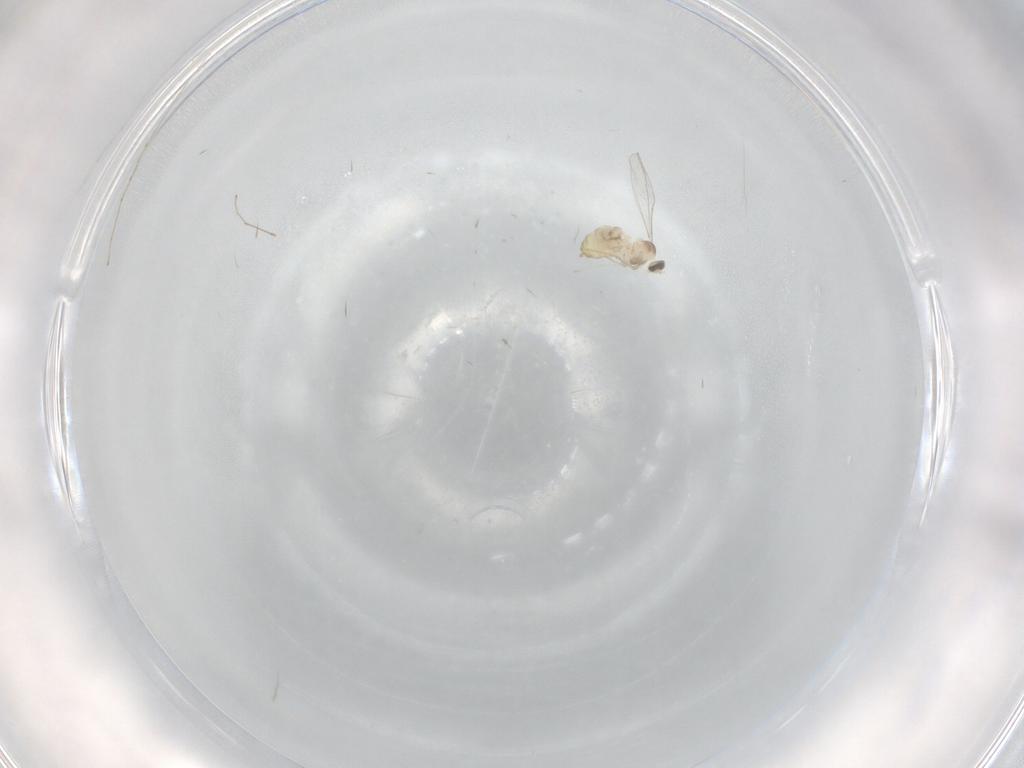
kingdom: Animalia
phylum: Arthropoda
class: Insecta
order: Diptera
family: Cecidomyiidae
